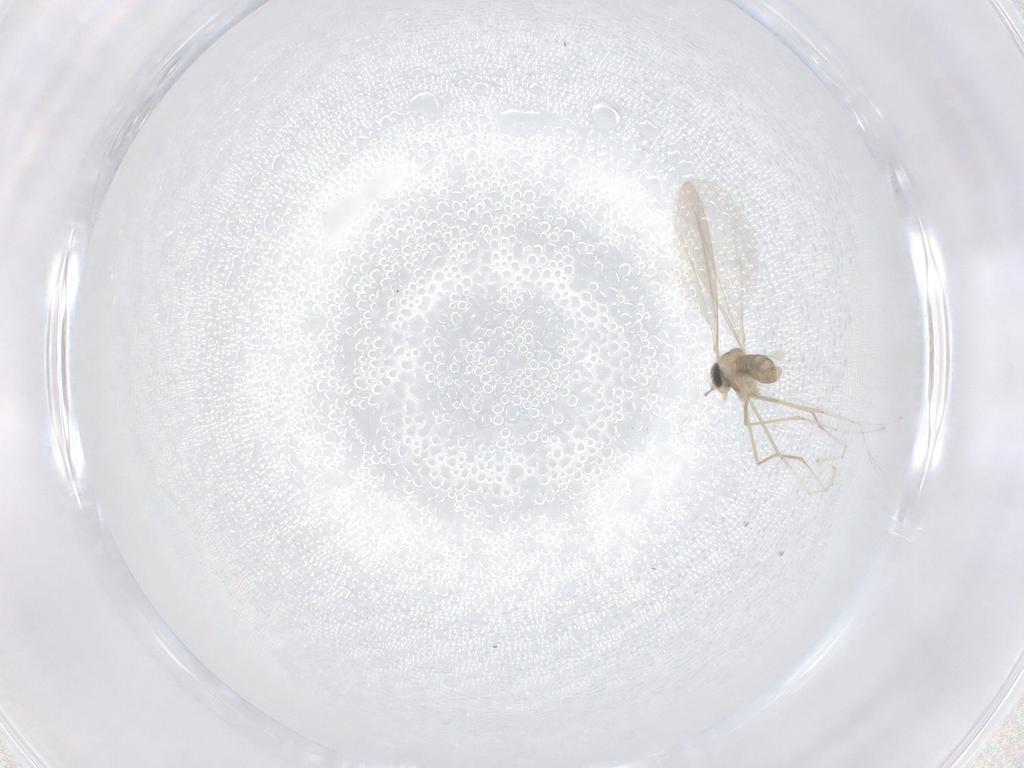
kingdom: Animalia
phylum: Arthropoda
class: Insecta
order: Diptera
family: Cecidomyiidae
